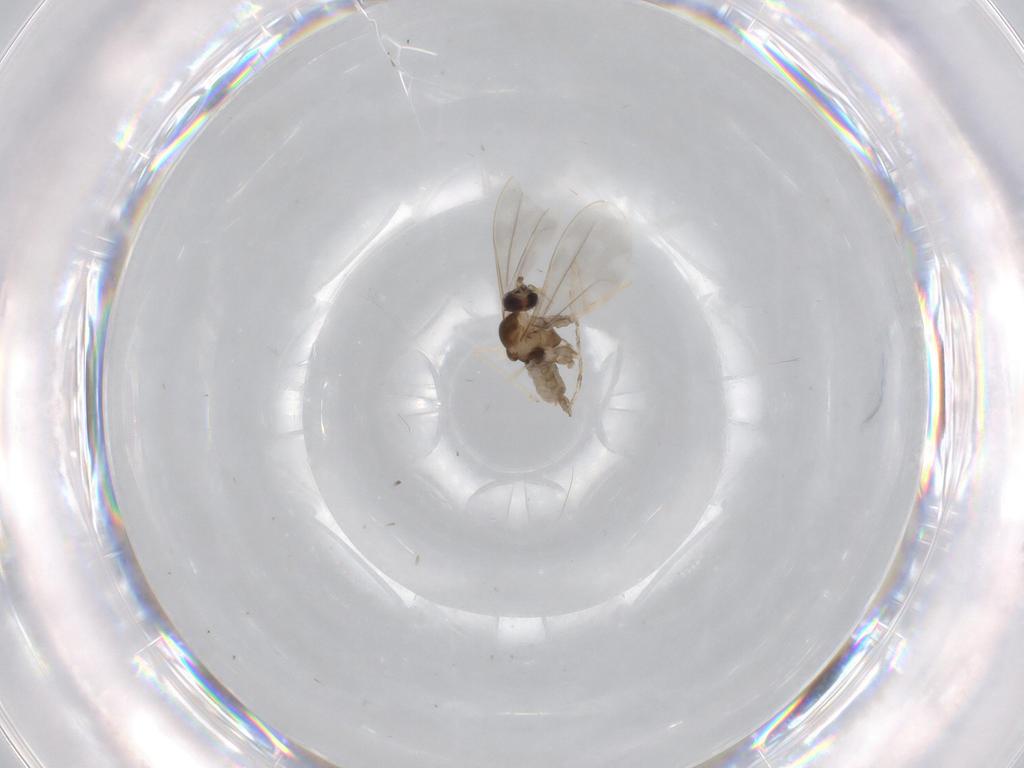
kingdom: Animalia
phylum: Arthropoda
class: Insecta
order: Diptera
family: Cecidomyiidae
